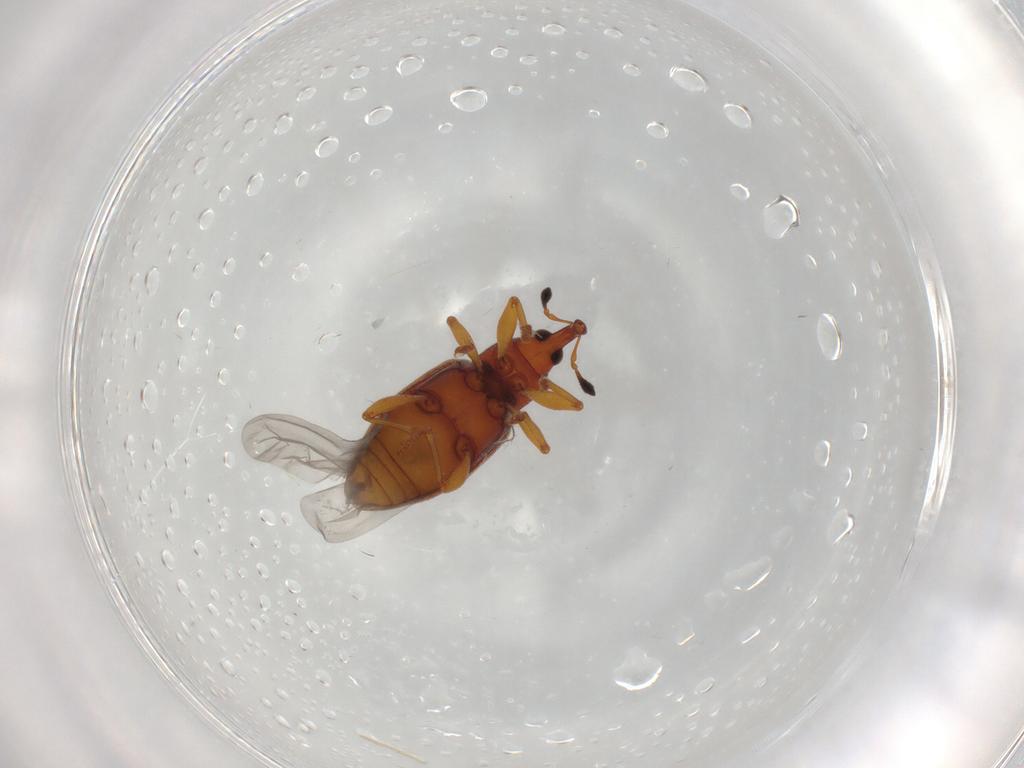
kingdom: Animalia
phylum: Arthropoda
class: Insecta
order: Coleoptera
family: Curculionidae
